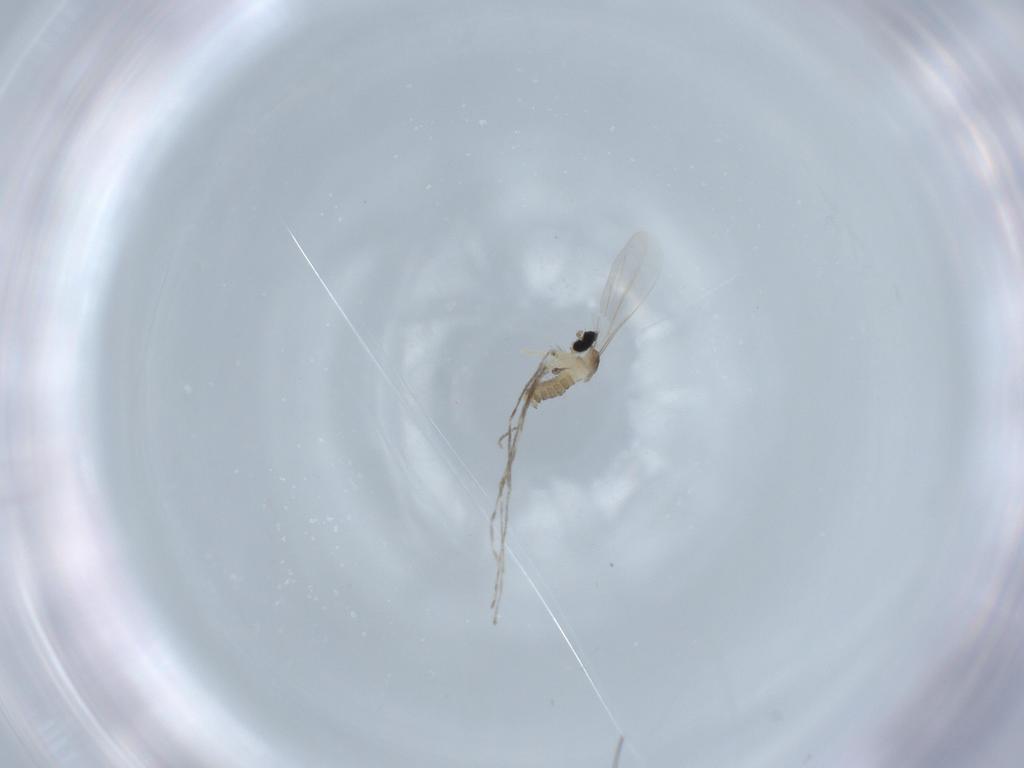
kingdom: Animalia
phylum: Arthropoda
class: Insecta
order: Diptera
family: Cecidomyiidae
